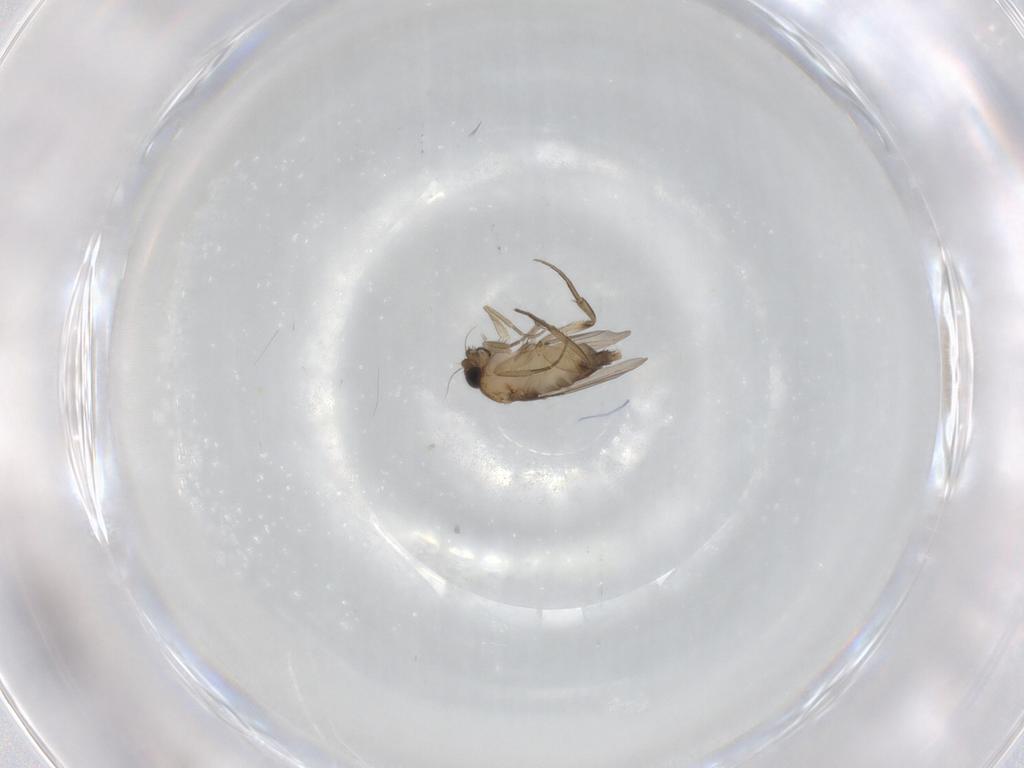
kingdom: Animalia
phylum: Arthropoda
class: Insecta
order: Diptera
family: Phoridae
